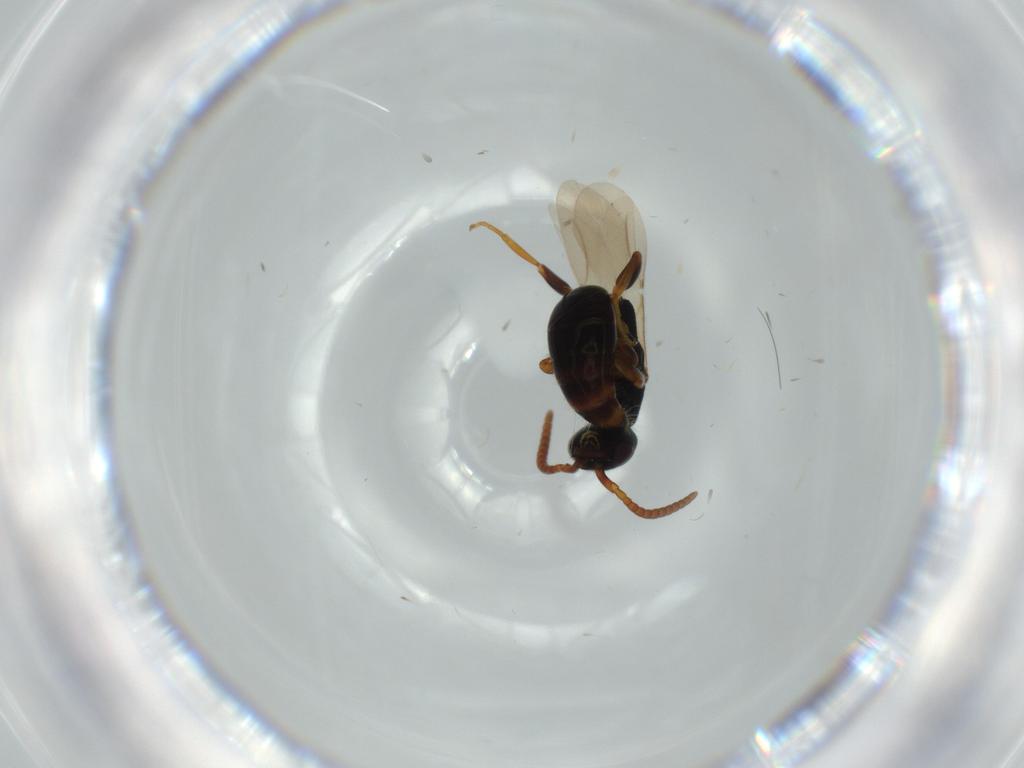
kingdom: Animalia
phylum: Arthropoda
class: Insecta
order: Hymenoptera
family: Bethylidae
